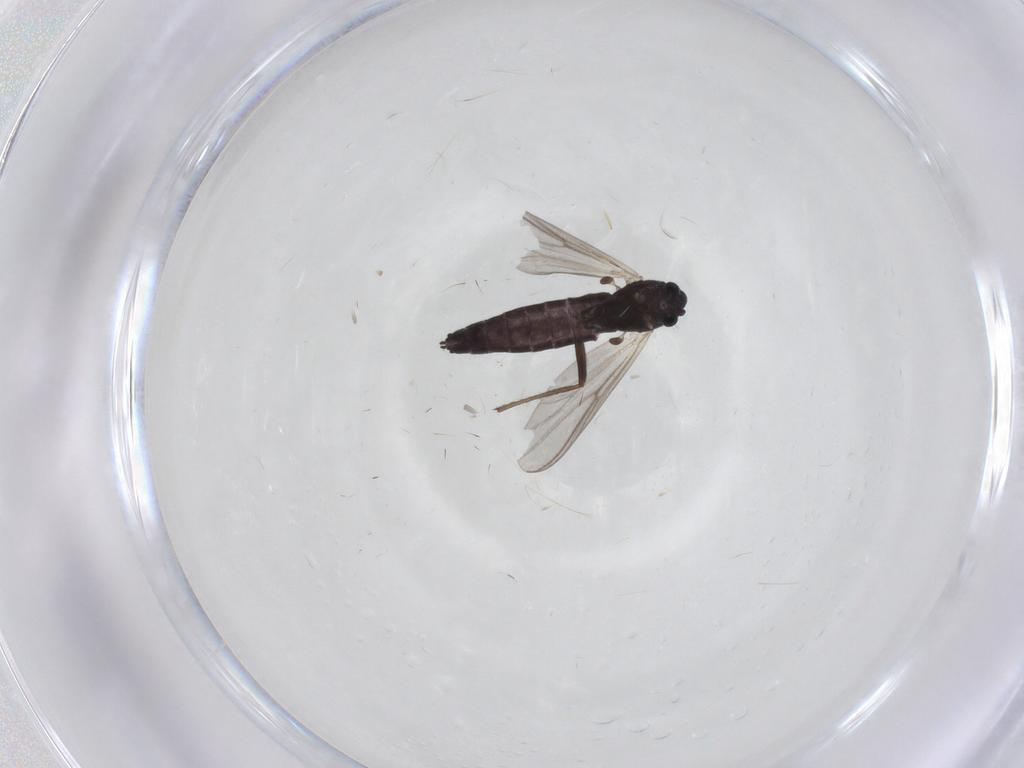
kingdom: Animalia
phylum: Arthropoda
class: Insecta
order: Diptera
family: Chironomidae
